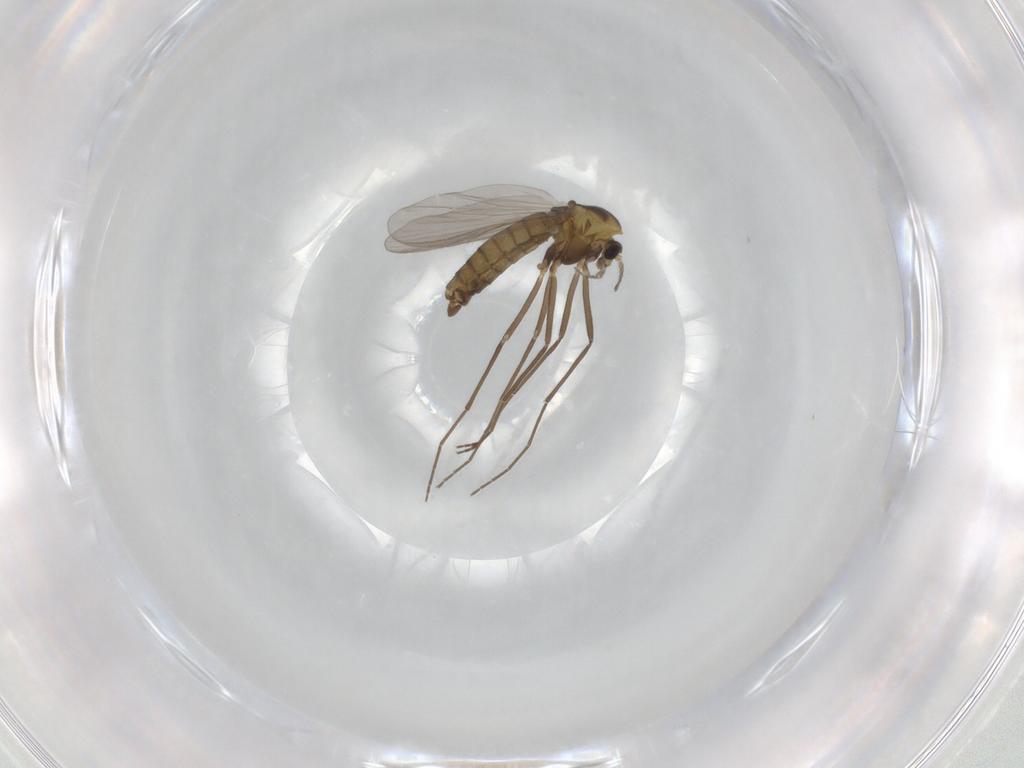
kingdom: Animalia
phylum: Arthropoda
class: Insecta
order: Diptera
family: Chironomidae
